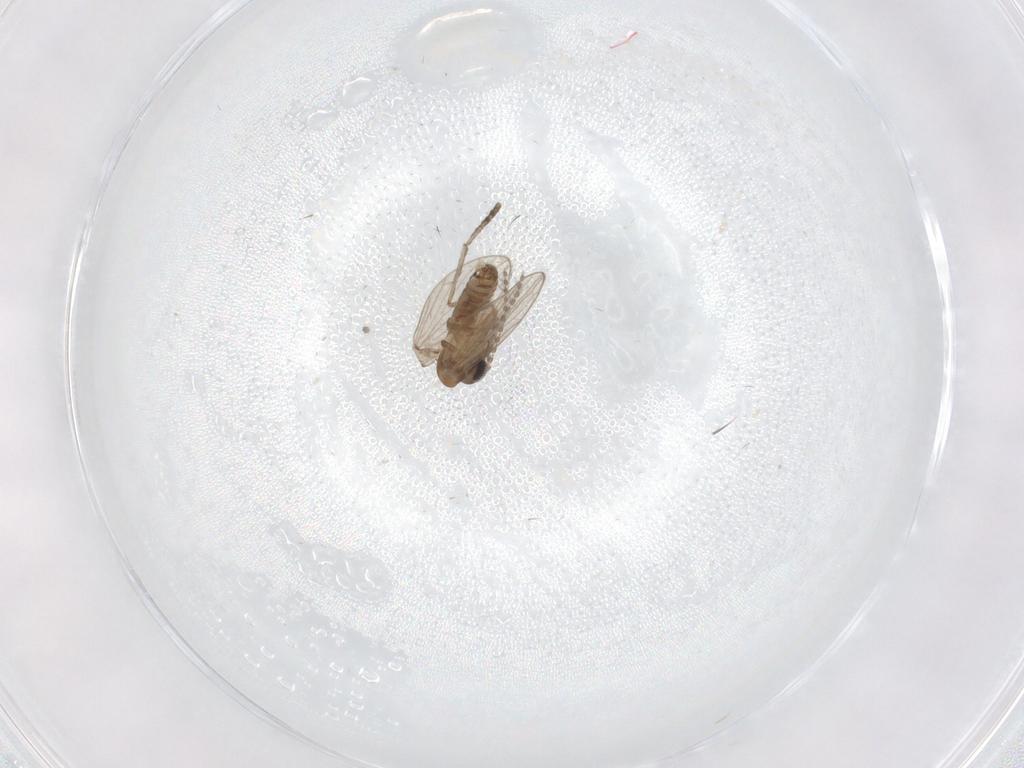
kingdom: Animalia
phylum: Arthropoda
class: Insecta
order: Diptera
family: Psychodidae
